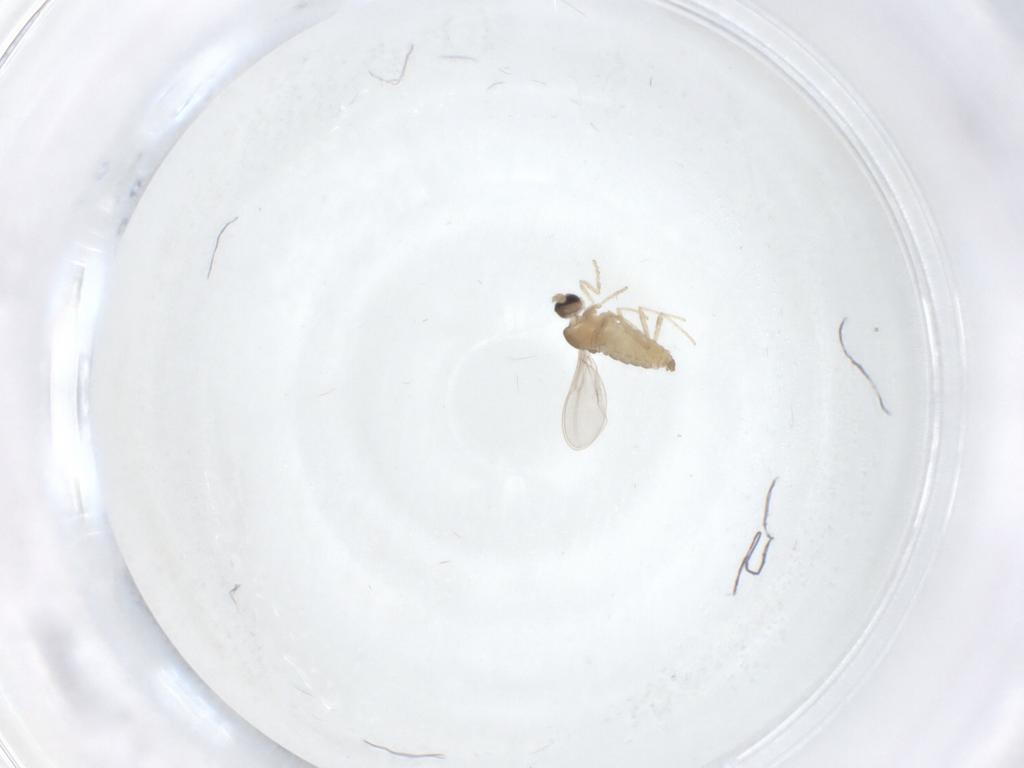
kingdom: Animalia
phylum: Arthropoda
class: Insecta
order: Diptera
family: Cecidomyiidae
